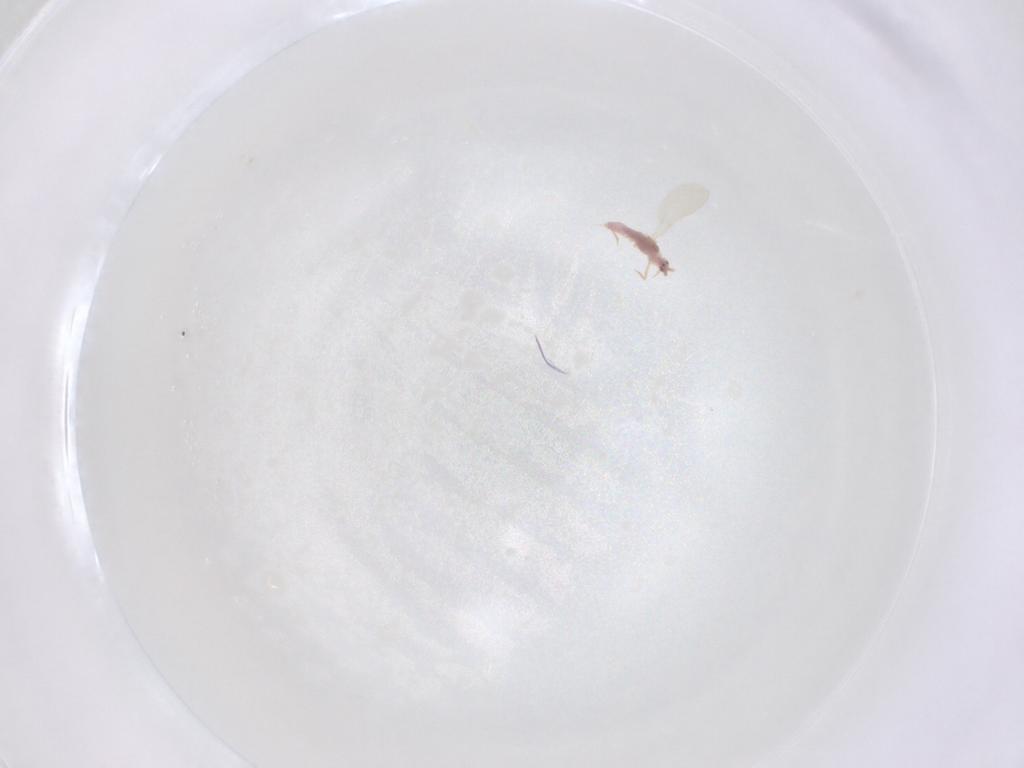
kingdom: Animalia
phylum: Arthropoda
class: Insecta
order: Hemiptera
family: Pseudococcidae
